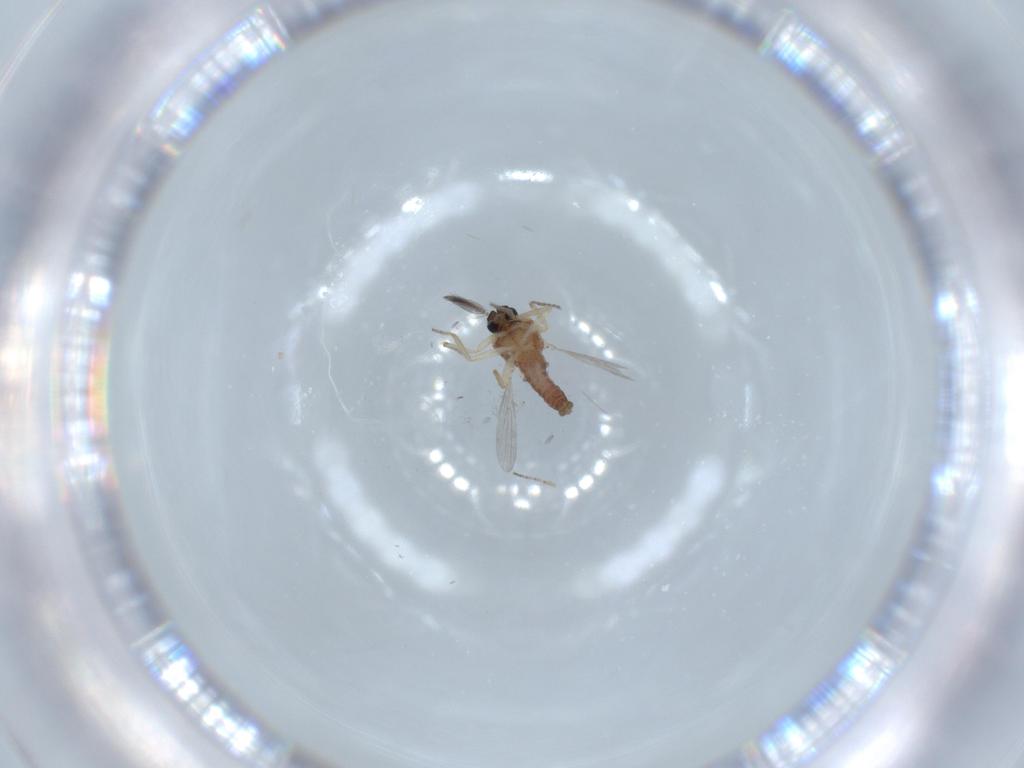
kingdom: Animalia
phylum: Arthropoda
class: Insecta
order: Diptera
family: Ceratopogonidae
